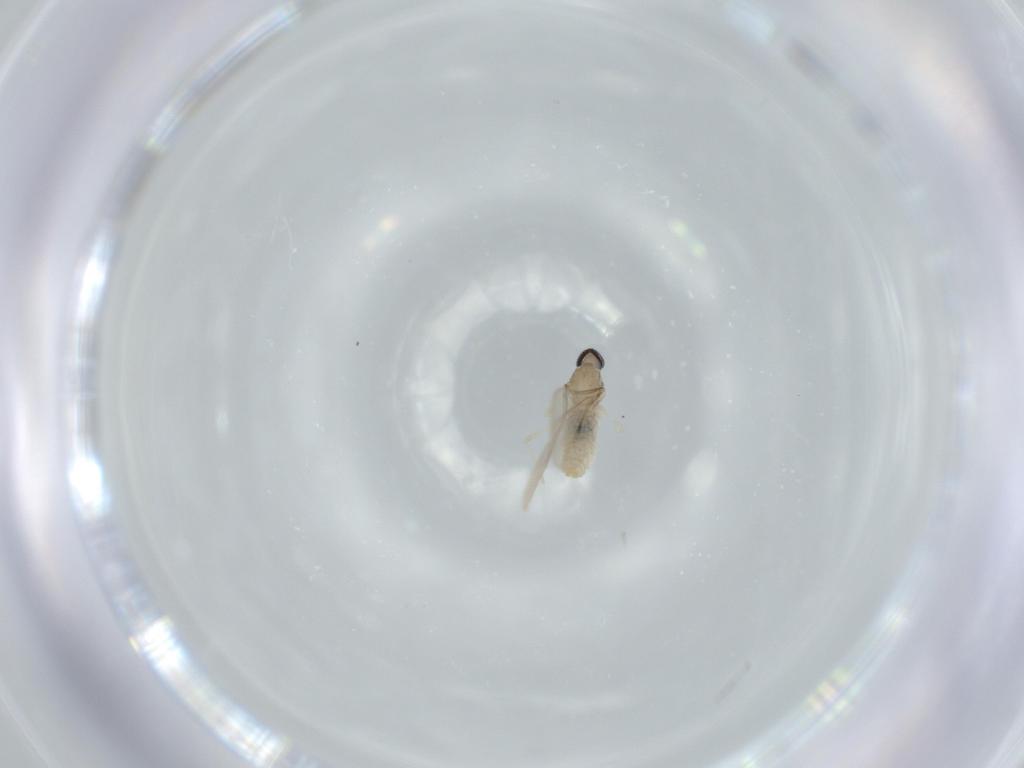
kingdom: Animalia
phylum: Arthropoda
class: Insecta
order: Diptera
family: Cecidomyiidae
